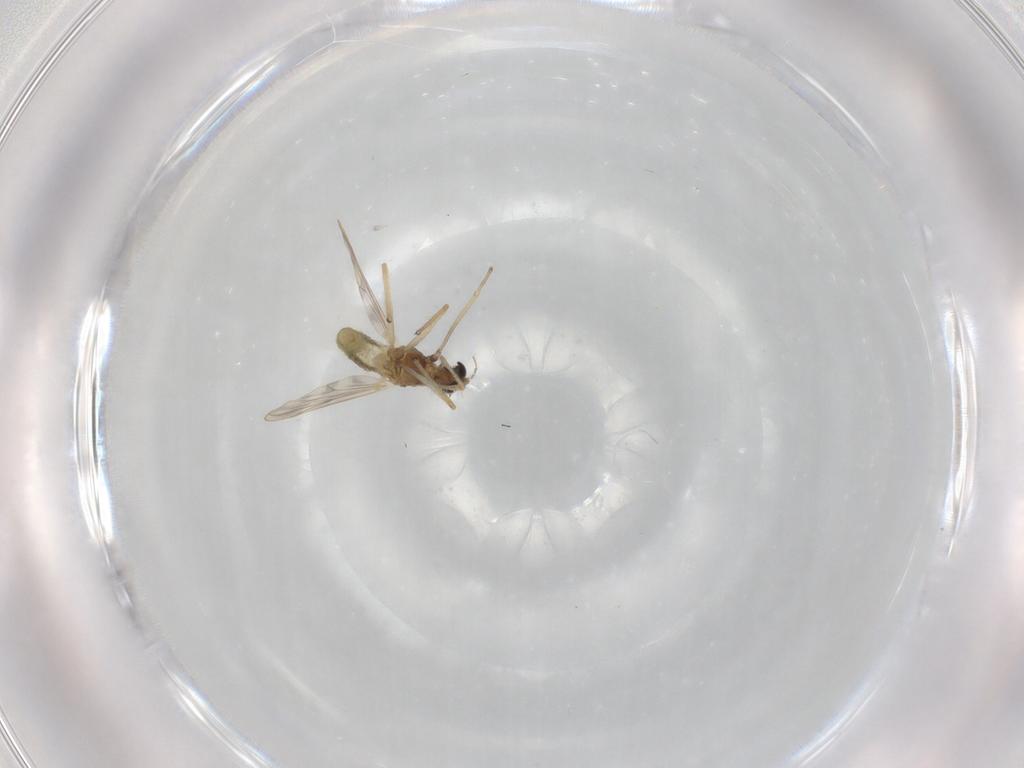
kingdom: Animalia
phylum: Arthropoda
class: Insecta
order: Diptera
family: Chironomidae
